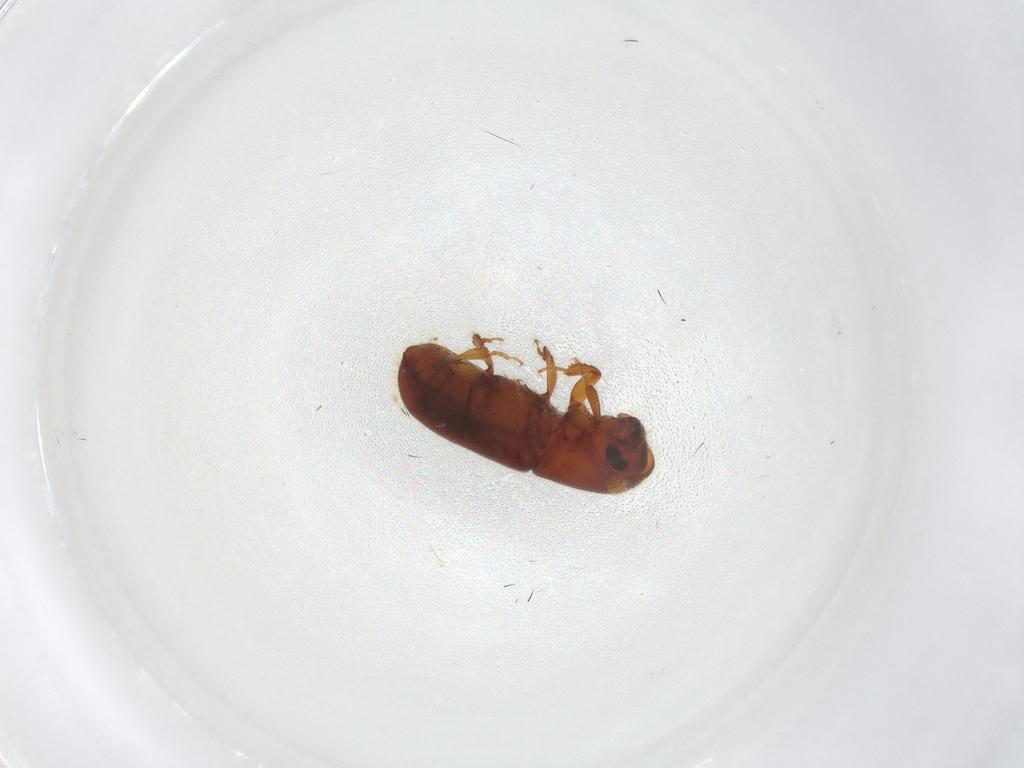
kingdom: Animalia
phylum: Arthropoda
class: Insecta
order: Coleoptera
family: Curculionidae
